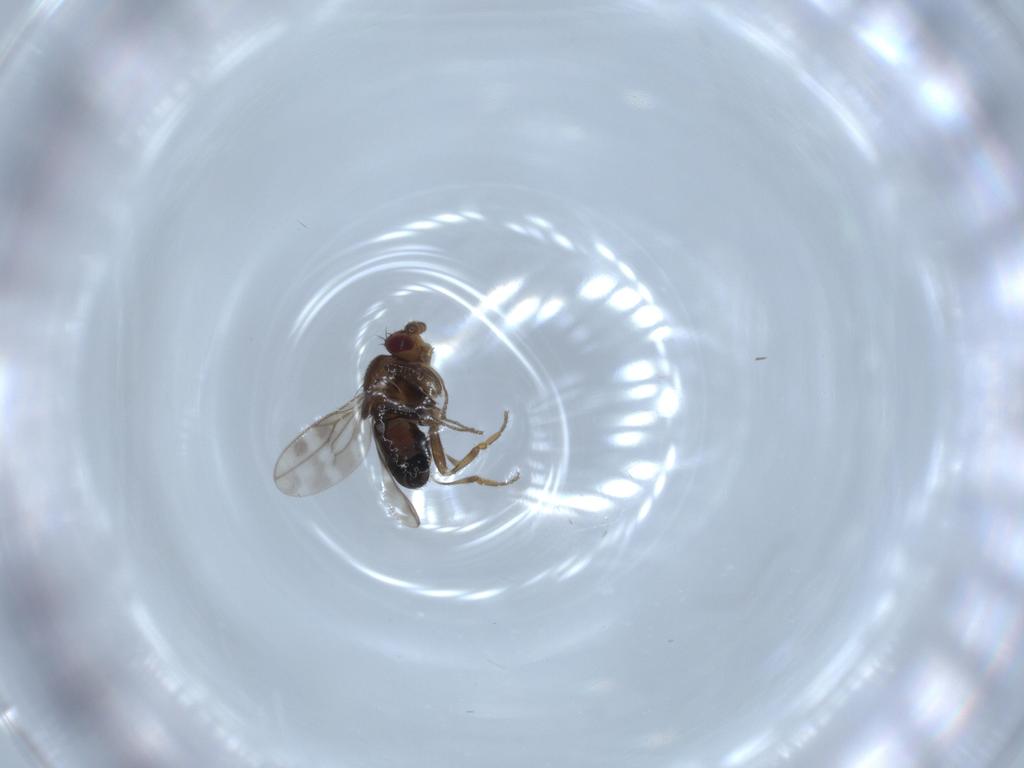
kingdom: Animalia
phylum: Arthropoda
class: Insecta
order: Diptera
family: Sphaeroceridae
